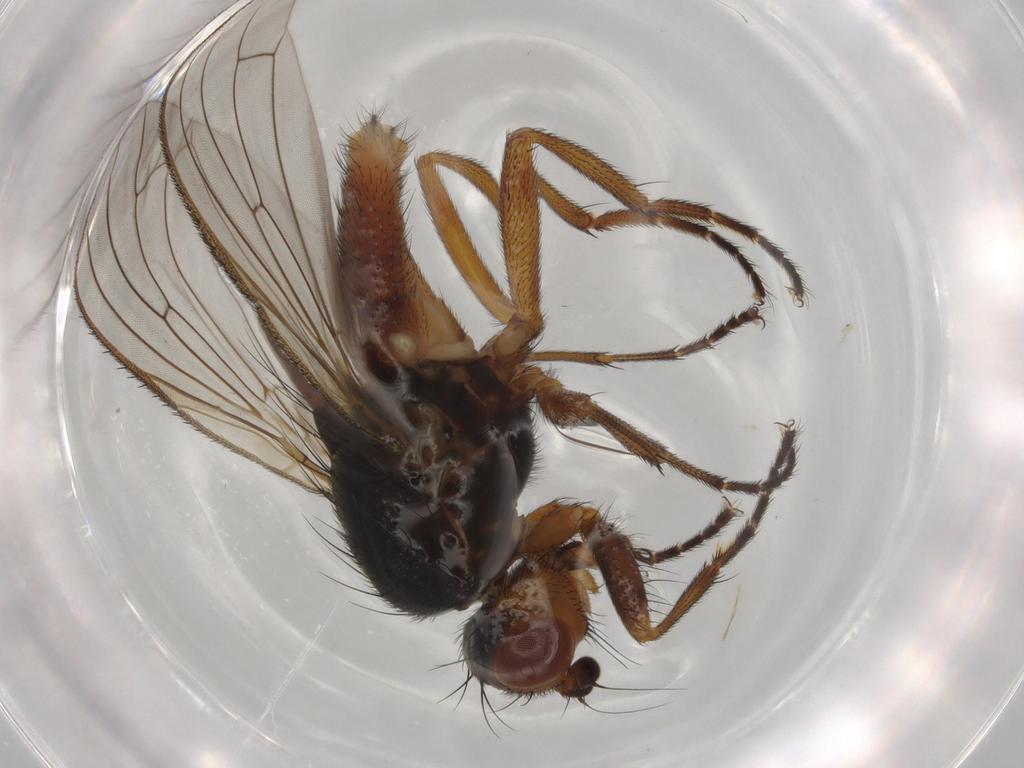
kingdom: Animalia
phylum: Arthropoda
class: Insecta
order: Diptera
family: Heleomyzidae
